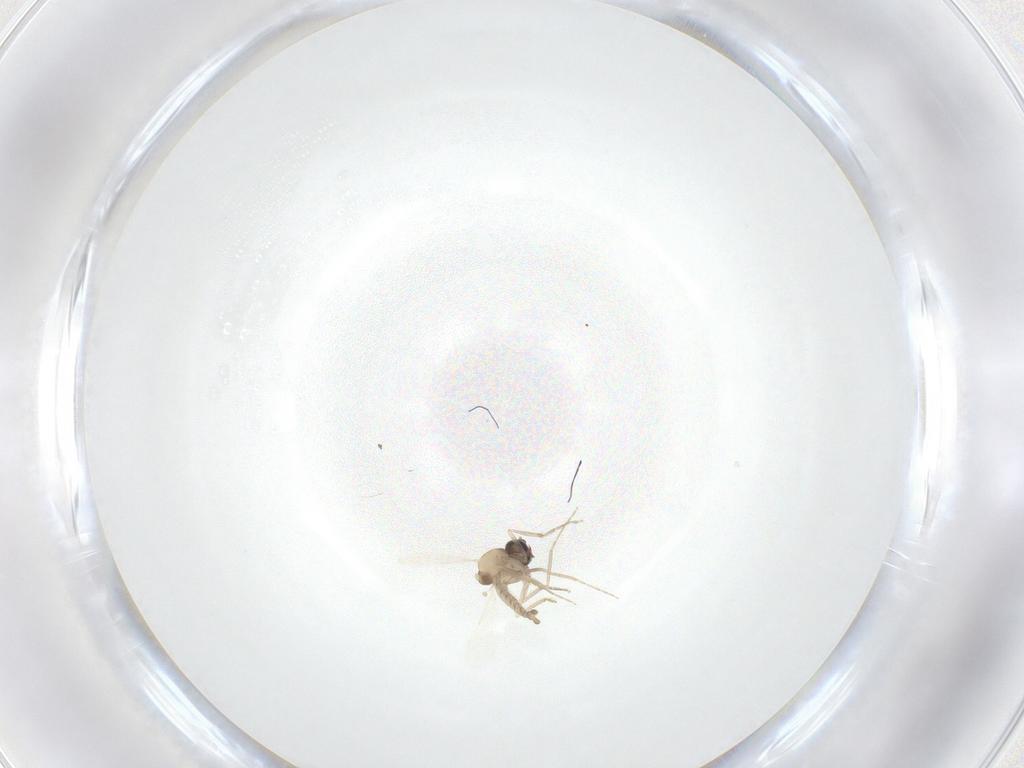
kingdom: Animalia
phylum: Arthropoda
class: Insecta
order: Diptera
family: Ceratopogonidae
